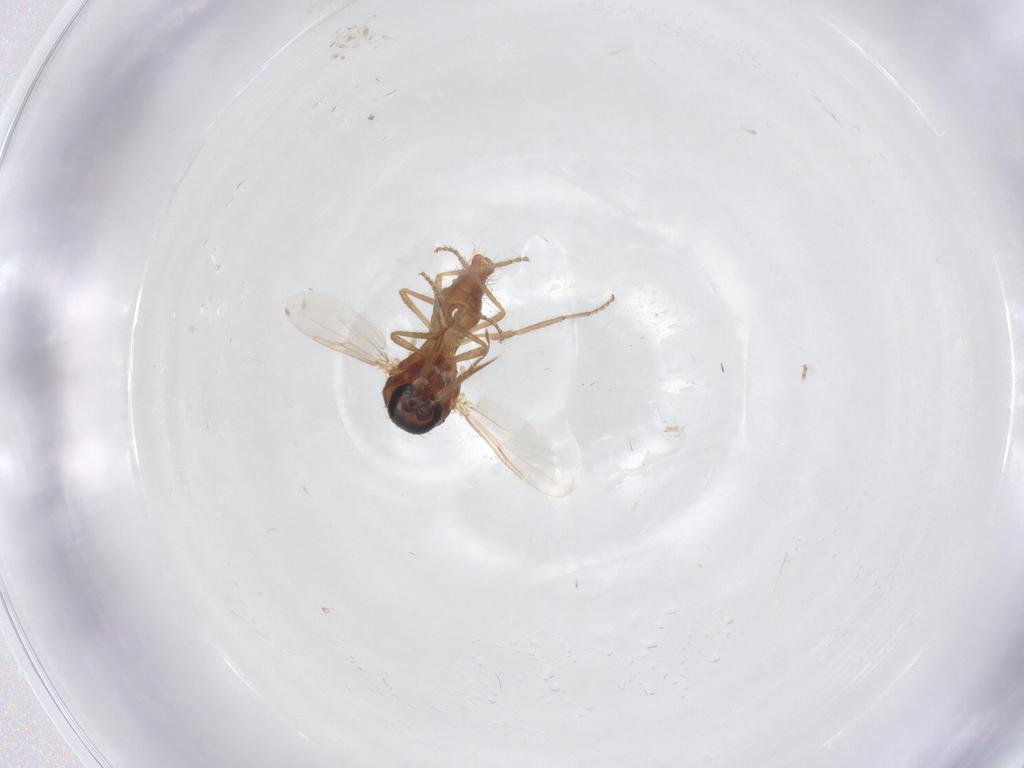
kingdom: Animalia
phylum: Arthropoda
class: Insecta
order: Diptera
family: Ceratopogonidae
